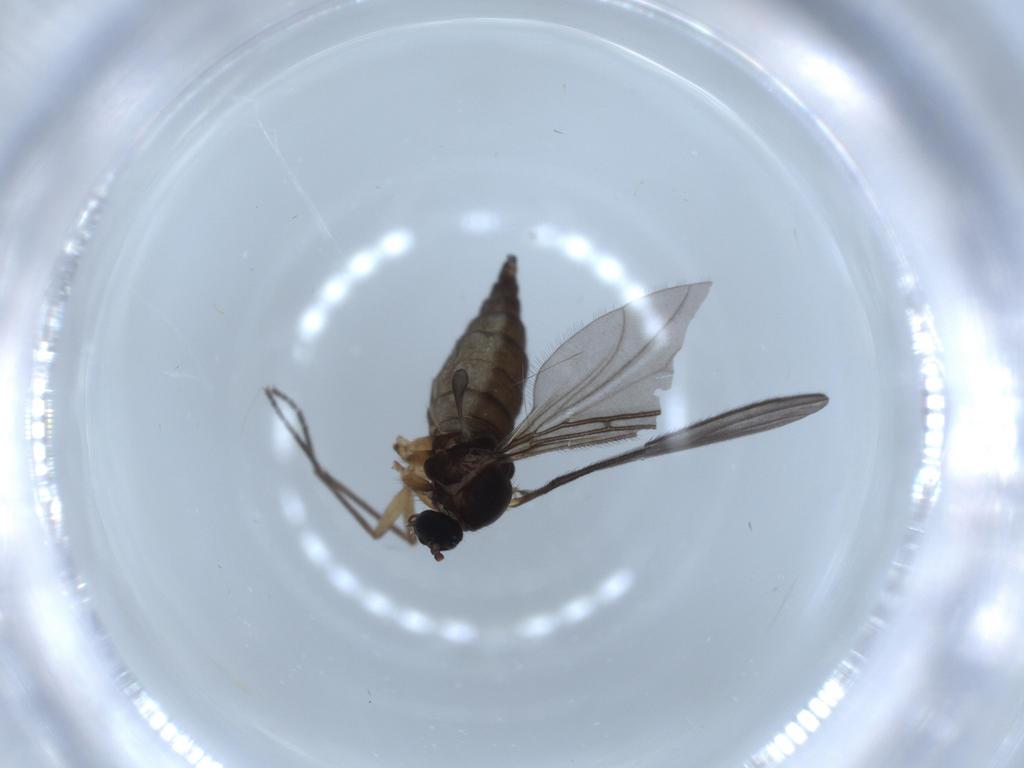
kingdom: Animalia
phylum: Arthropoda
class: Insecta
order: Diptera
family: Sciaridae
